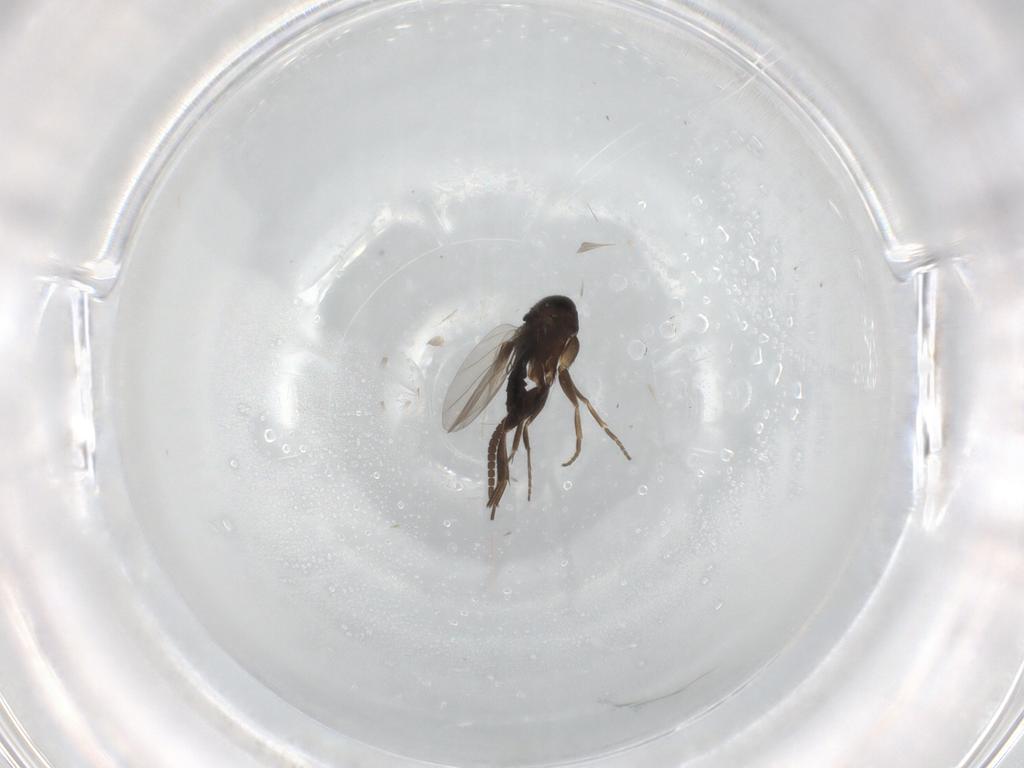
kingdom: Animalia
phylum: Arthropoda
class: Insecta
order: Diptera
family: Phoridae
